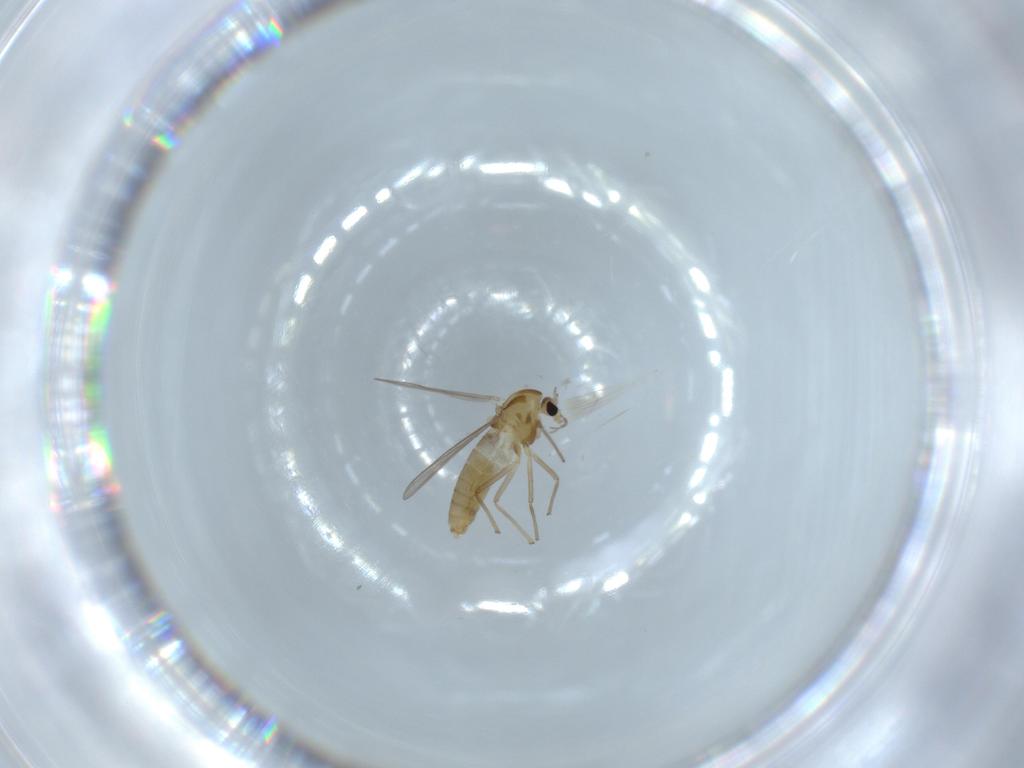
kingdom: Animalia
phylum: Arthropoda
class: Insecta
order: Diptera
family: Chironomidae
